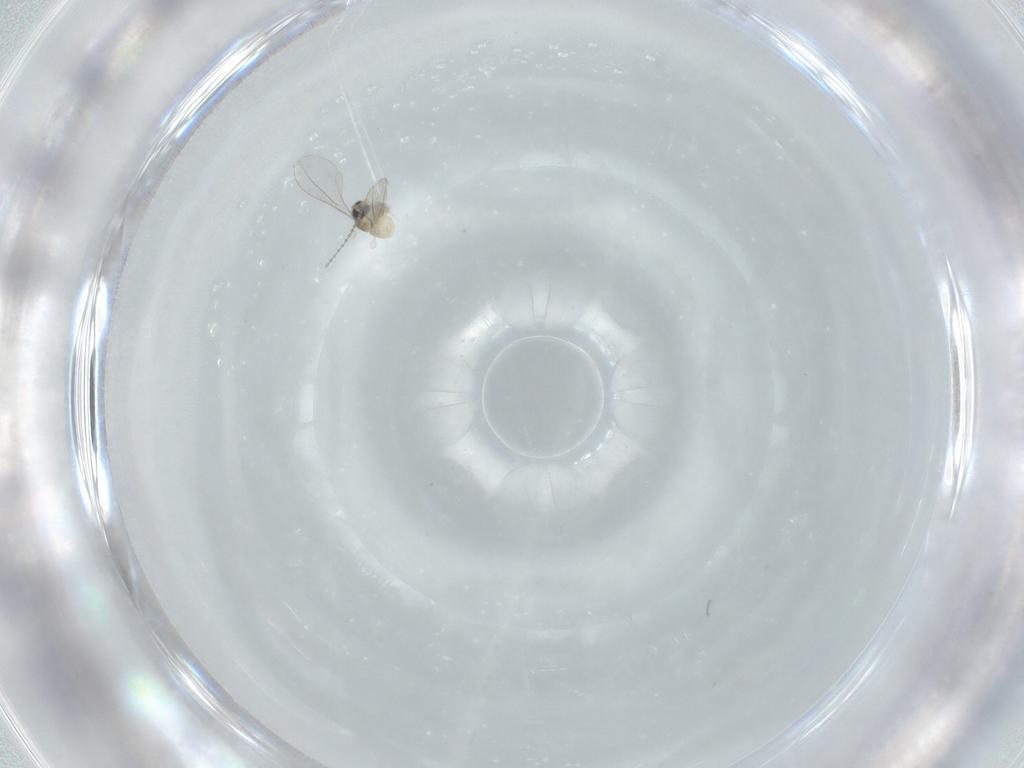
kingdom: Animalia
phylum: Arthropoda
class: Insecta
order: Diptera
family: Cecidomyiidae
